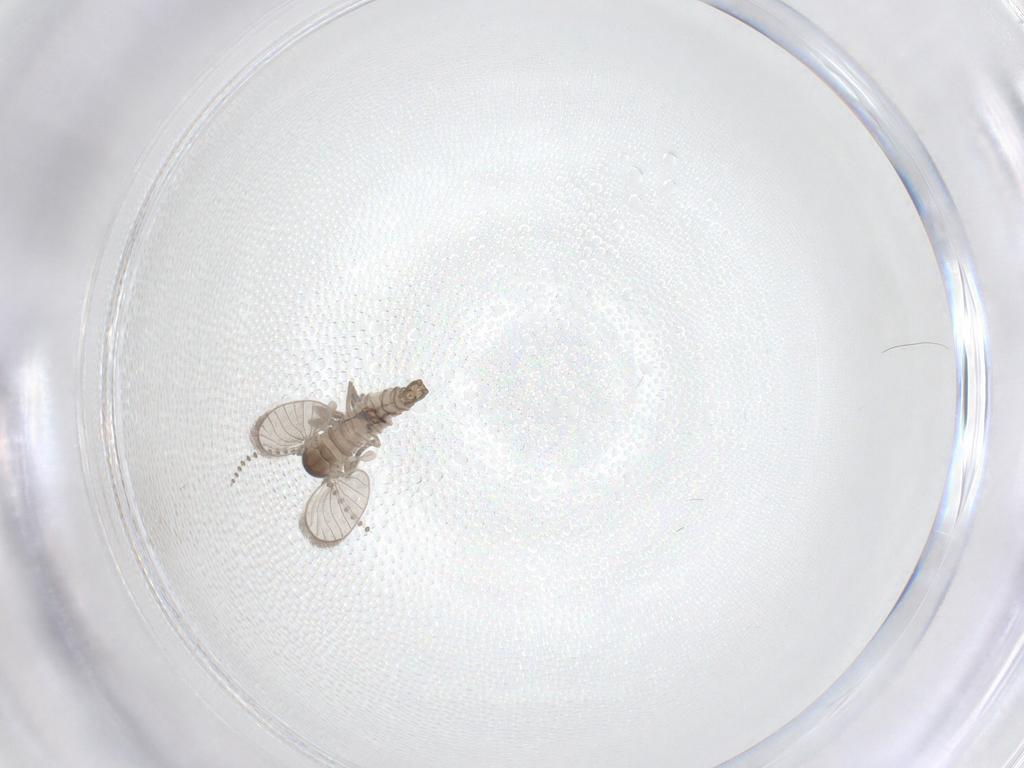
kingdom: Animalia
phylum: Arthropoda
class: Insecta
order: Diptera
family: Psychodidae
